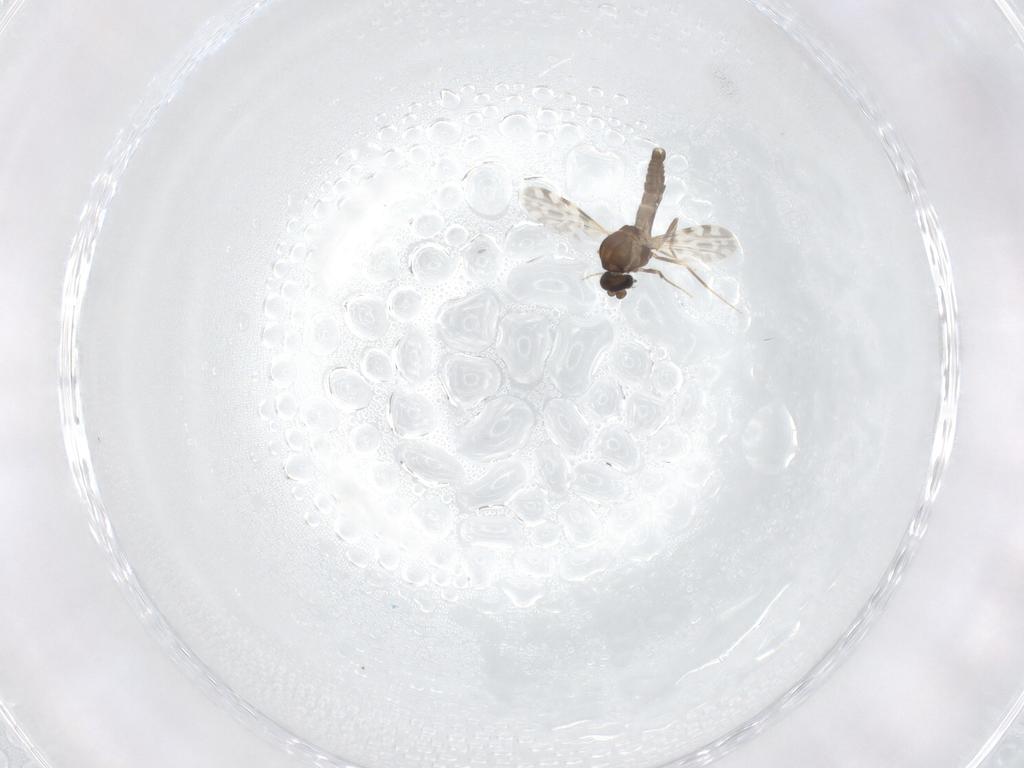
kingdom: Animalia
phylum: Arthropoda
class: Insecta
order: Diptera
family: Ceratopogonidae
